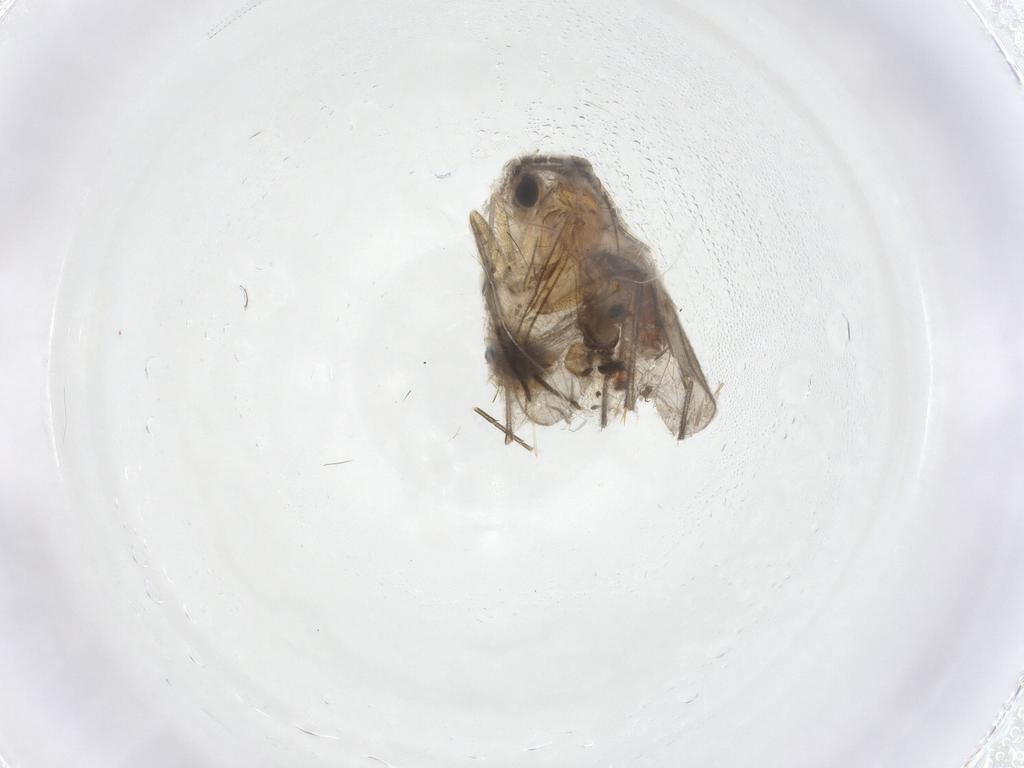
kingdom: Animalia
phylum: Arthropoda
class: Insecta
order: Diptera
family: Sciaridae
